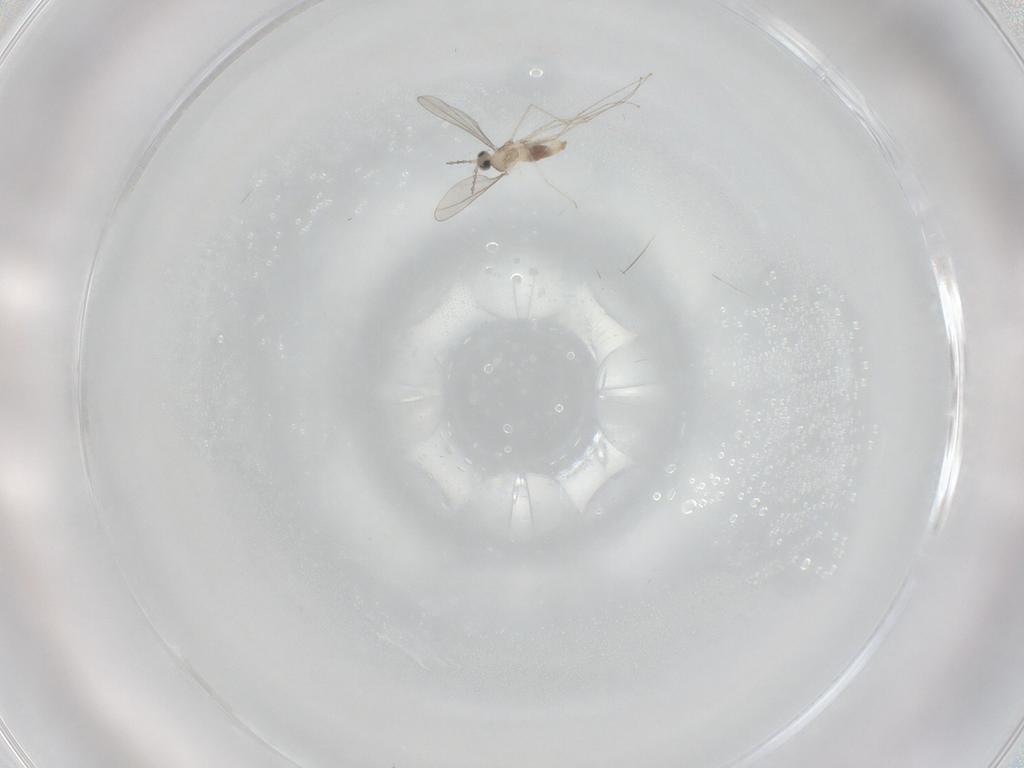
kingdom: Animalia
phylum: Arthropoda
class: Insecta
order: Diptera
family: Cecidomyiidae
